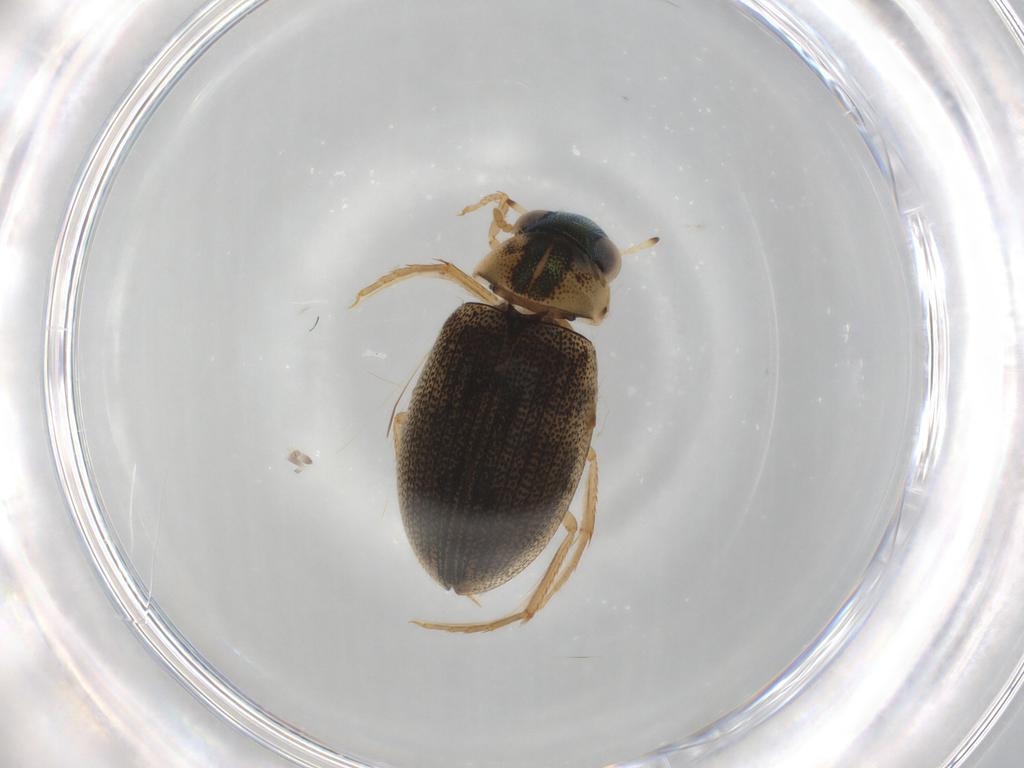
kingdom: Animalia
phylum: Arthropoda
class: Insecta
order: Coleoptera
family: Hydrophilidae
